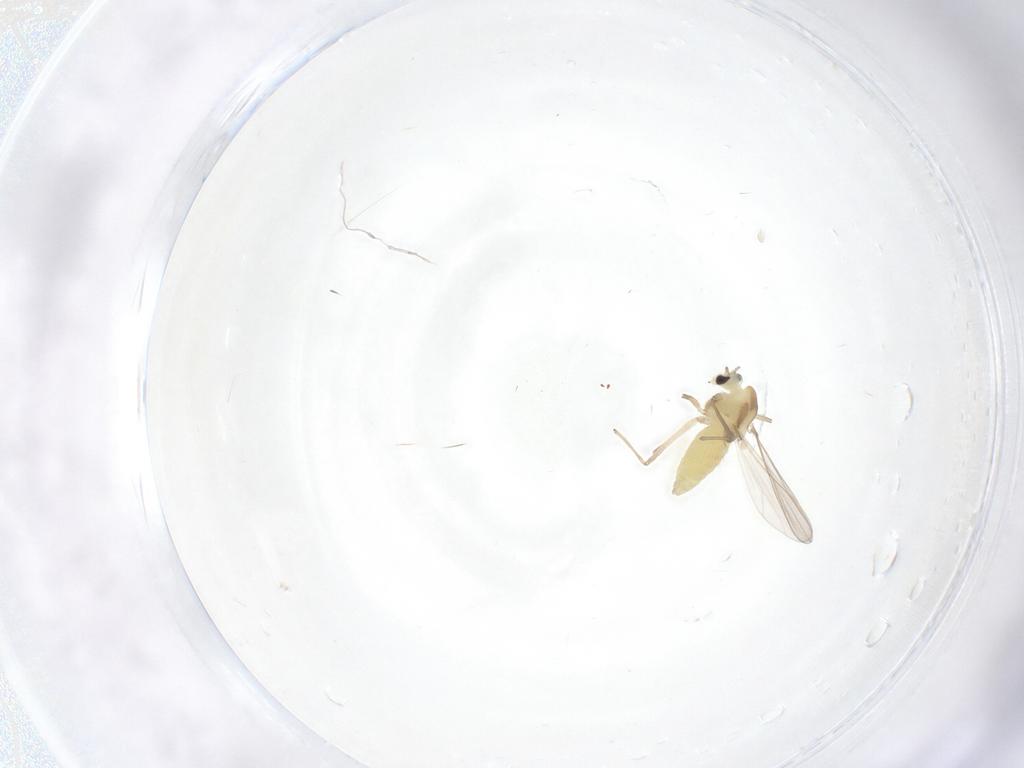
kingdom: Animalia
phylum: Arthropoda
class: Insecta
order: Diptera
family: Chironomidae
